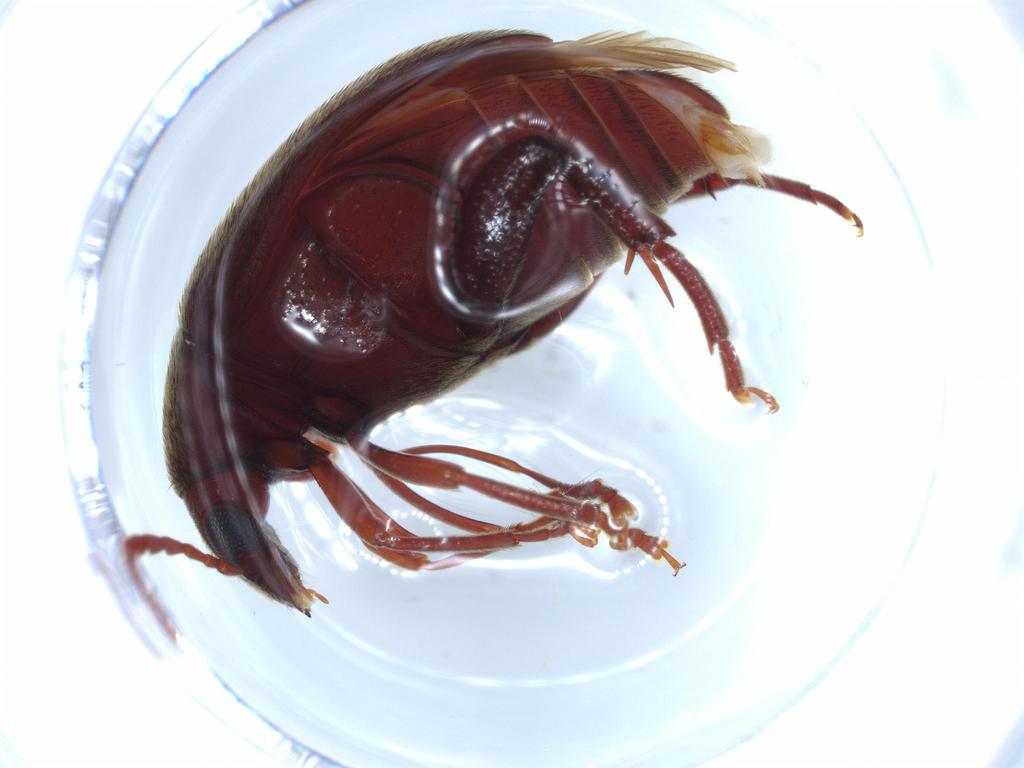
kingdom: Animalia
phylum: Arthropoda
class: Insecta
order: Coleoptera
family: Chrysomelidae
